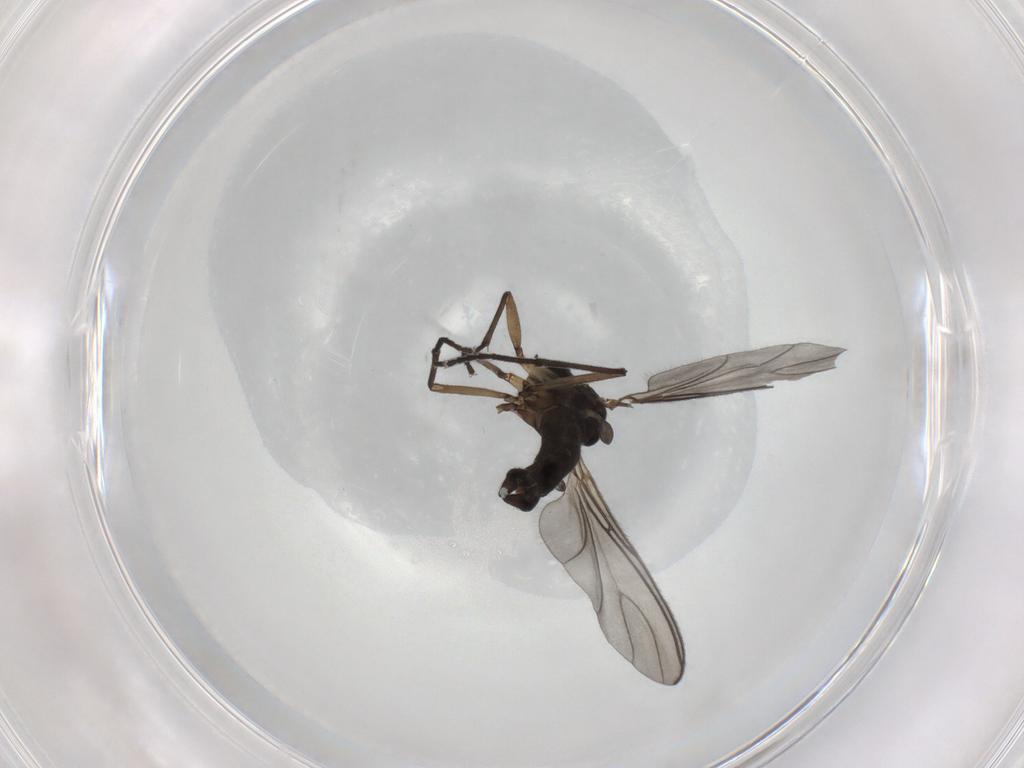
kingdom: Animalia
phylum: Arthropoda
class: Insecta
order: Diptera
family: Sciaridae
